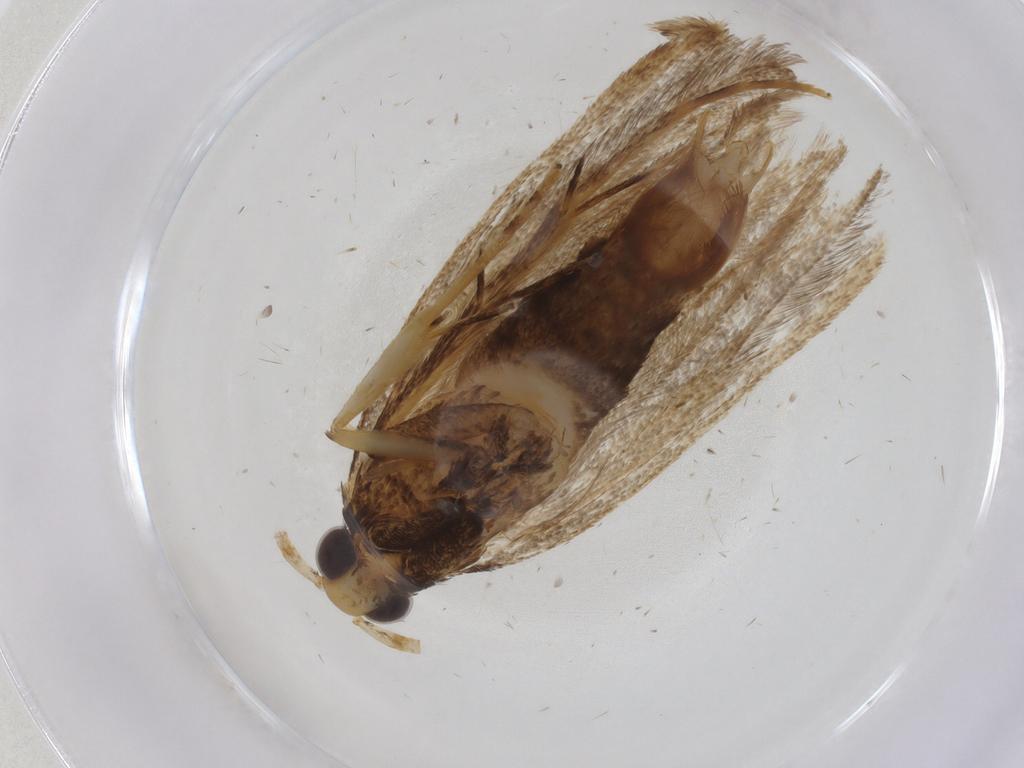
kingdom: Animalia
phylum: Arthropoda
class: Insecta
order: Lepidoptera
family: Lecithoceridae
